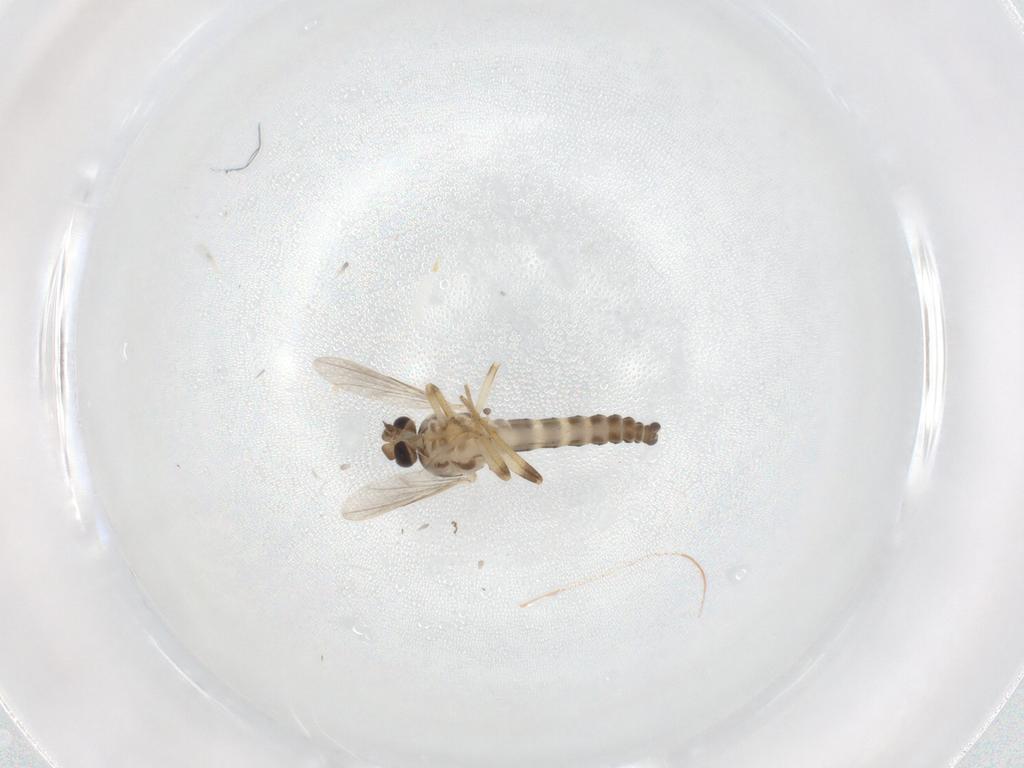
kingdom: Animalia
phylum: Arthropoda
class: Insecta
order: Diptera
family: Ceratopogonidae
